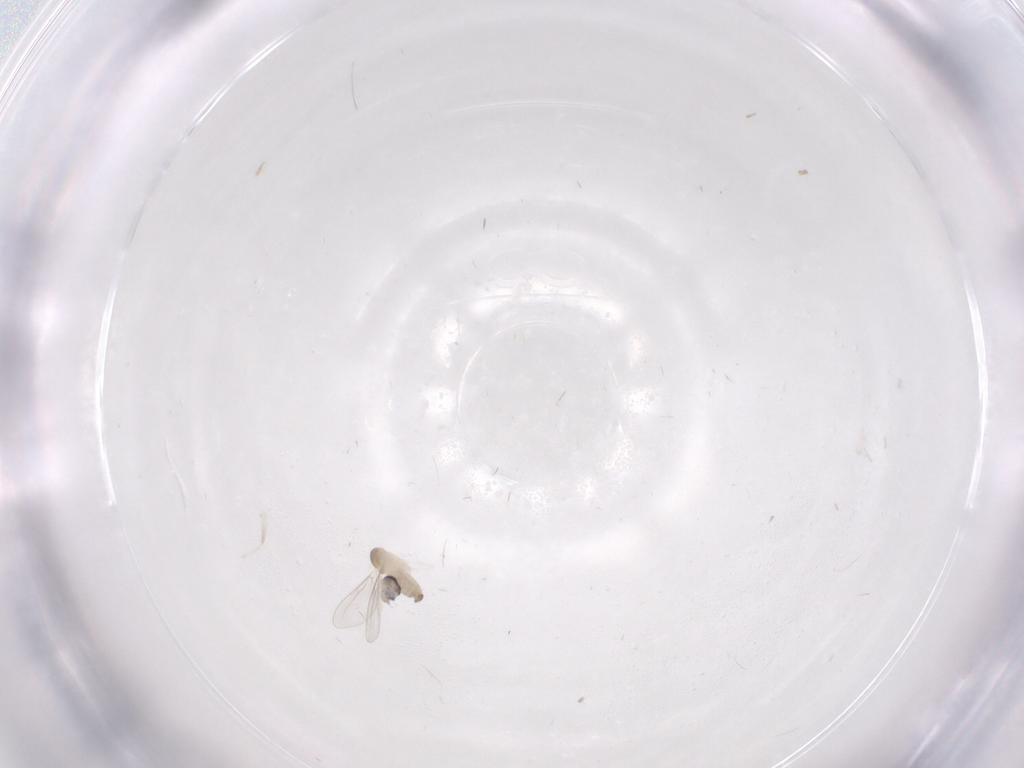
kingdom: Animalia
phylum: Arthropoda
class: Insecta
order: Diptera
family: Cecidomyiidae
